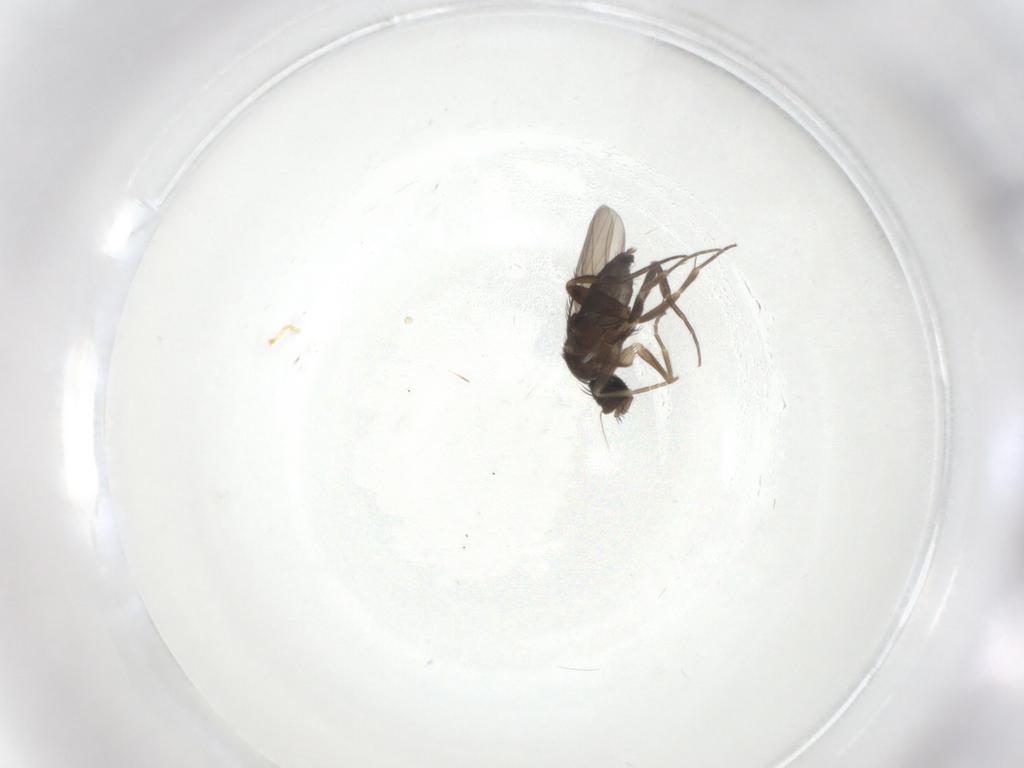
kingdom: Animalia
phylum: Arthropoda
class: Insecta
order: Diptera
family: Phoridae
